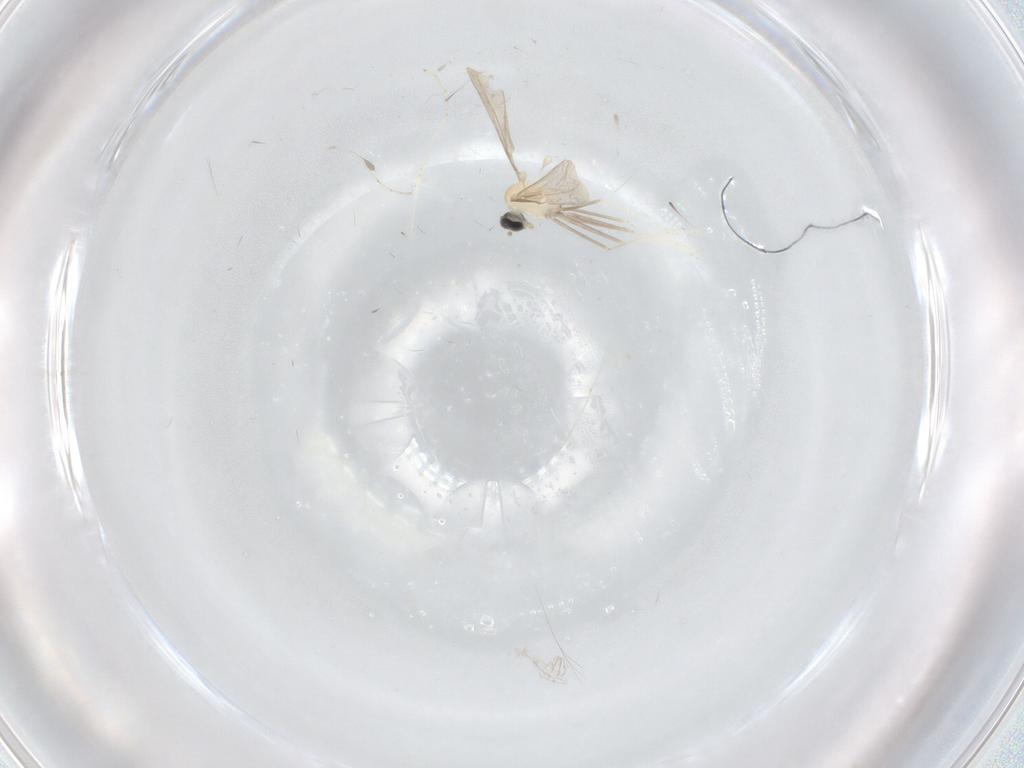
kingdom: Animalia
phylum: Arthropoda
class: Insecta
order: Diptera
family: Cecidomyiidae
